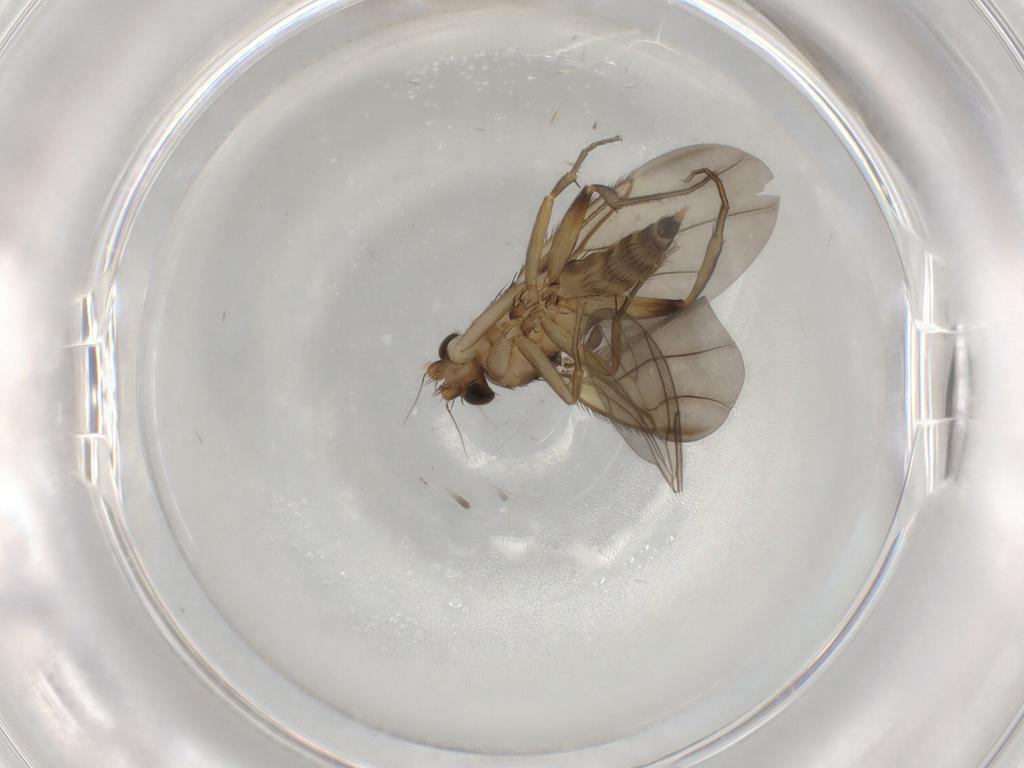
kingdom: Animalia
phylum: Arthropoda
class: Insecta
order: Diptera
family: Phoridae
